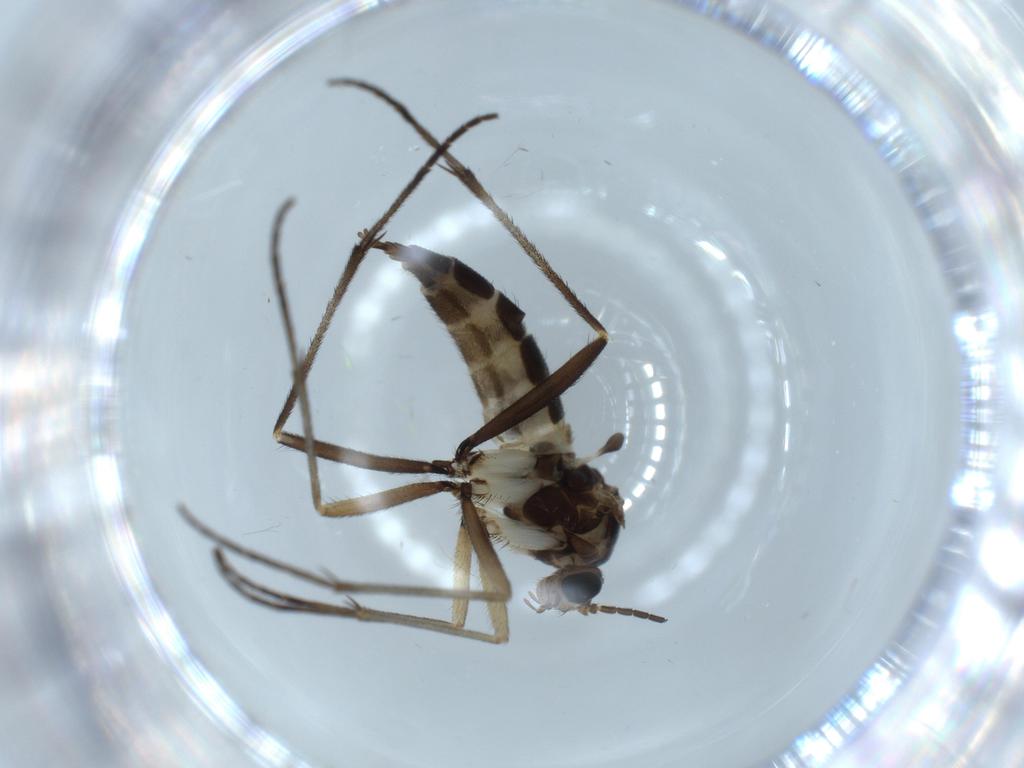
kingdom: Animalia
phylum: Arthropoda
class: Insecta
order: Diptera
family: Sciaridae
